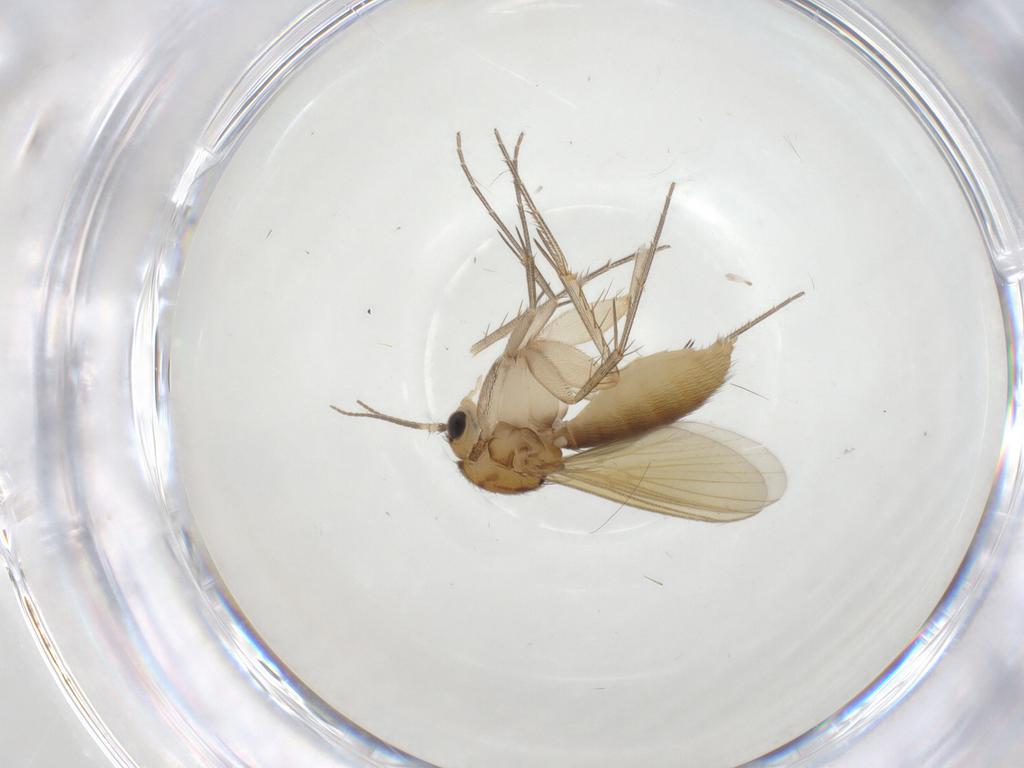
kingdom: Animalia
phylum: Arthropoda
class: Insecta
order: Diptera
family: Mycetophilidae
